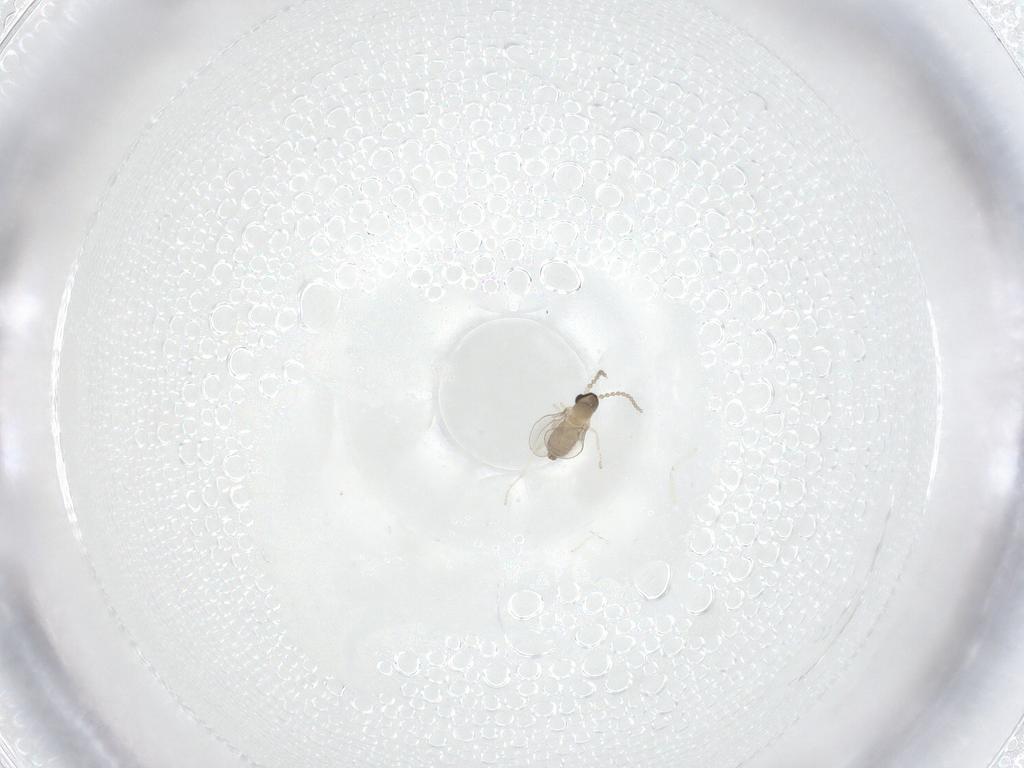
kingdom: Animalia
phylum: Arthropoda
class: Insecta
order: Diptera
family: Cecidomyiidae
